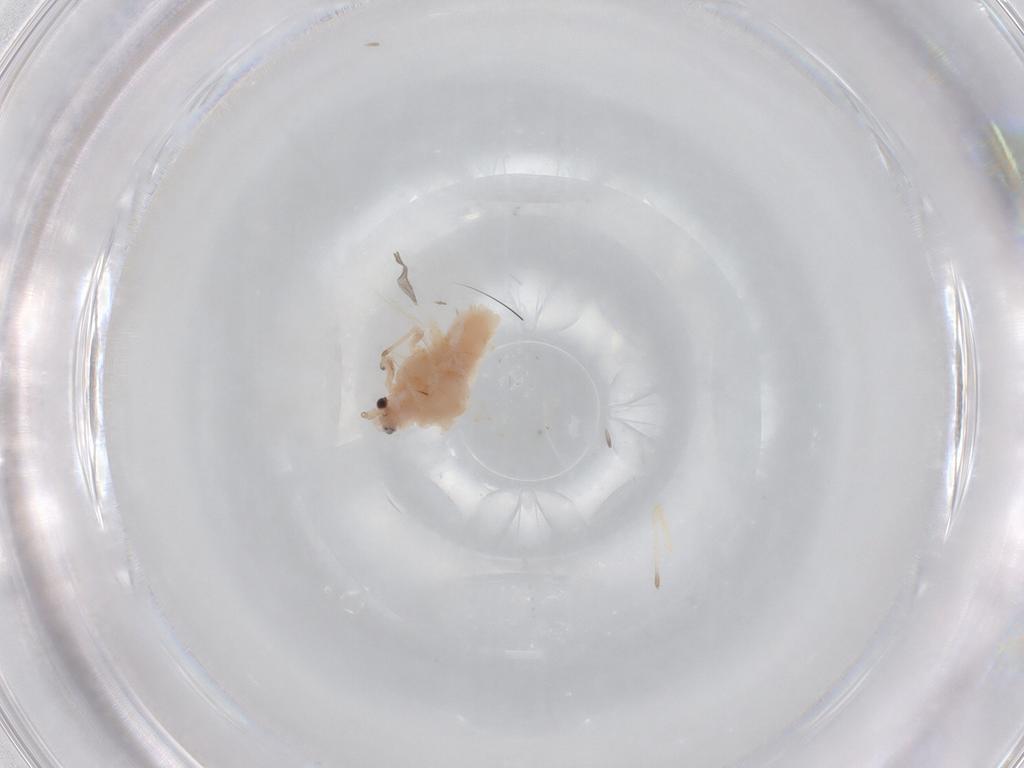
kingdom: Animalia
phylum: Arthropoda
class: Insecta
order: Hemiptera
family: Aphididae
